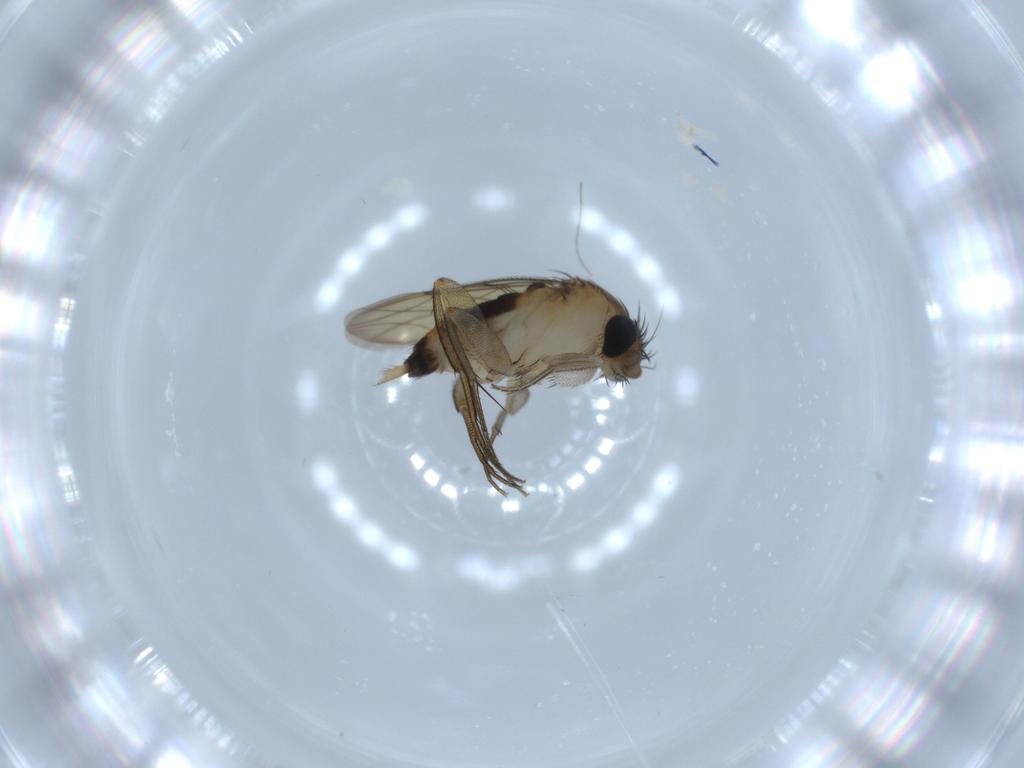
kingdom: Animalia
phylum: Arthropoda
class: Insecta
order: Diptera
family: Phoridae
